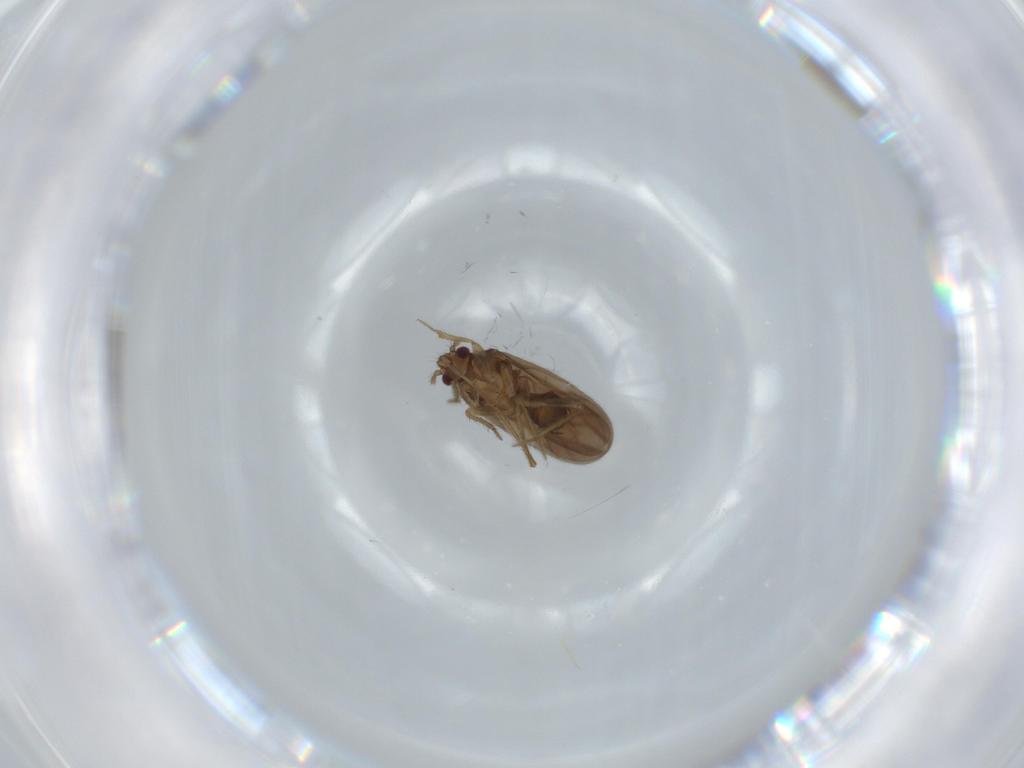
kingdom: Animalia
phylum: Arthropoda
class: Insecta
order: Hemiptera
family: Ceratocombidae
